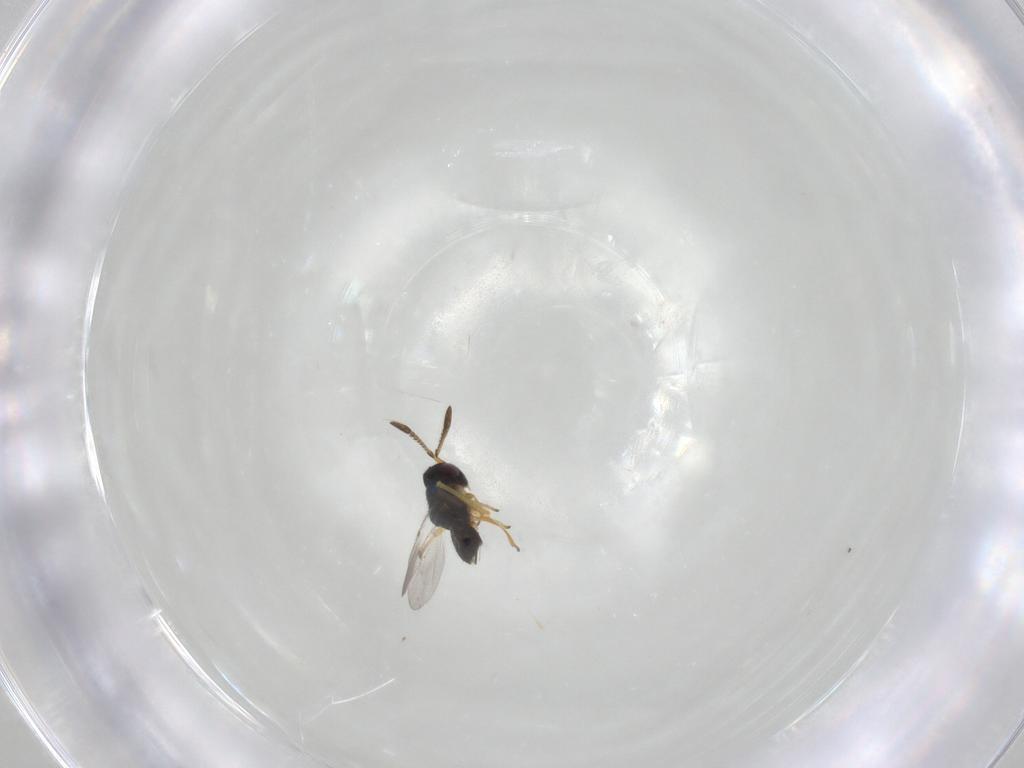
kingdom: Animalia
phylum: Arthropoda
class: Insecta
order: Hymenoptera
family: Encyrtidae
